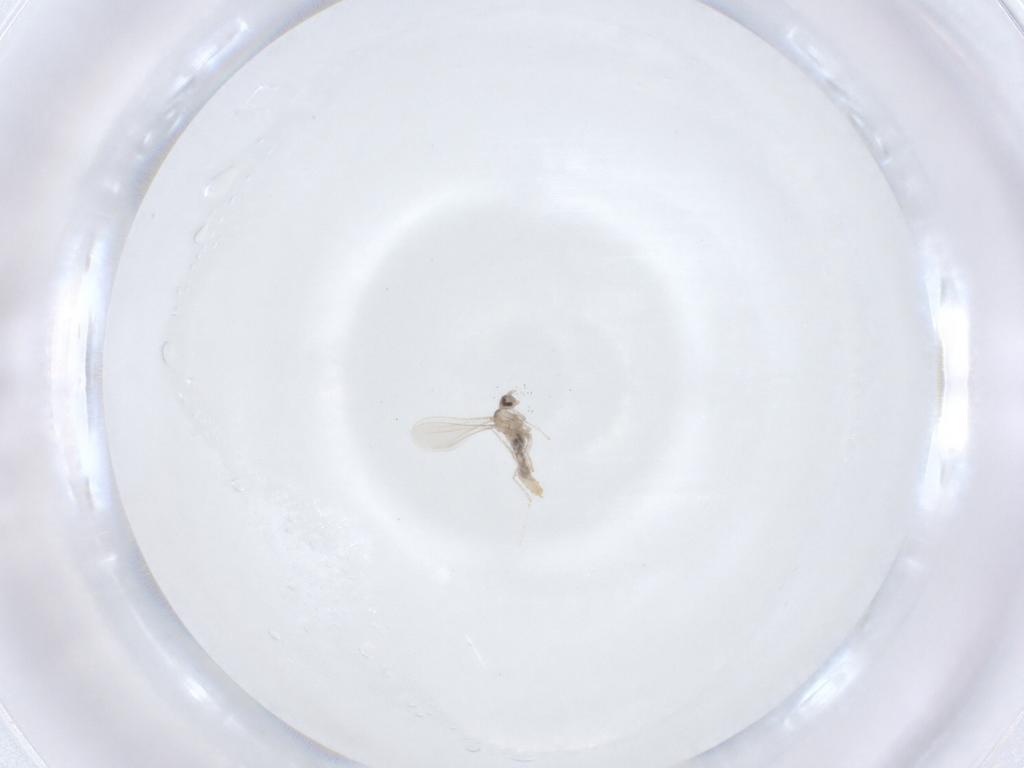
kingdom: Animalia
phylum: Arthropoda
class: Insecta
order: Diptera
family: Cecidomyiidae
